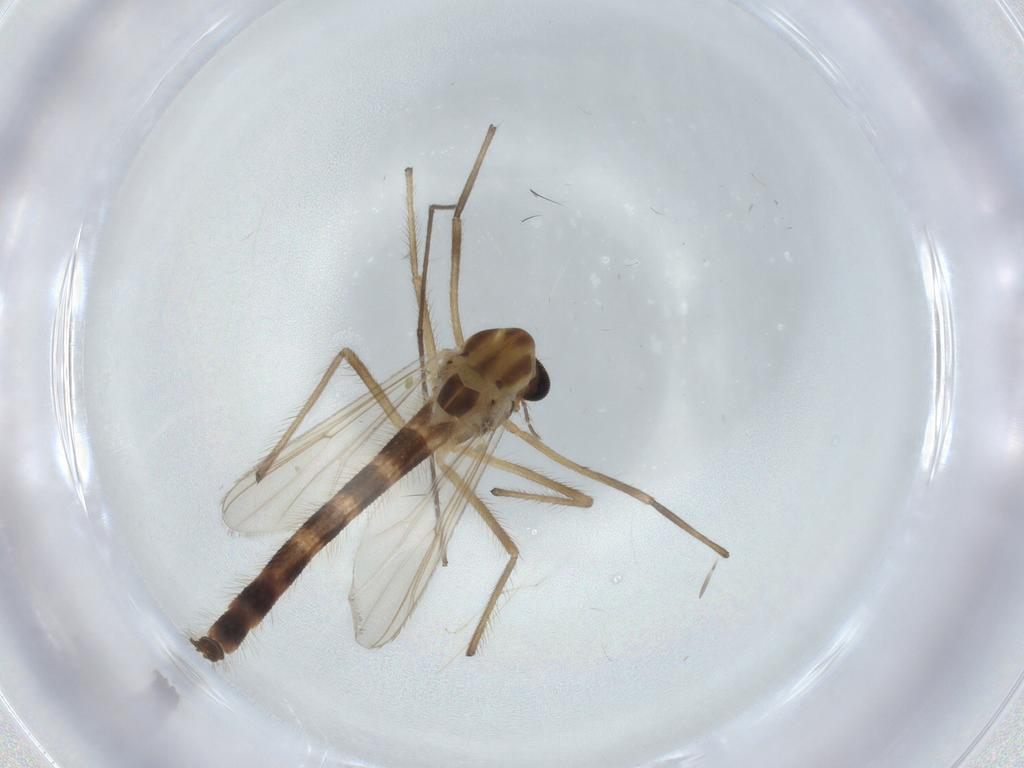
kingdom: Animalia
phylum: Arthropoda
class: Insecta
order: Diptera
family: Chironomidae
